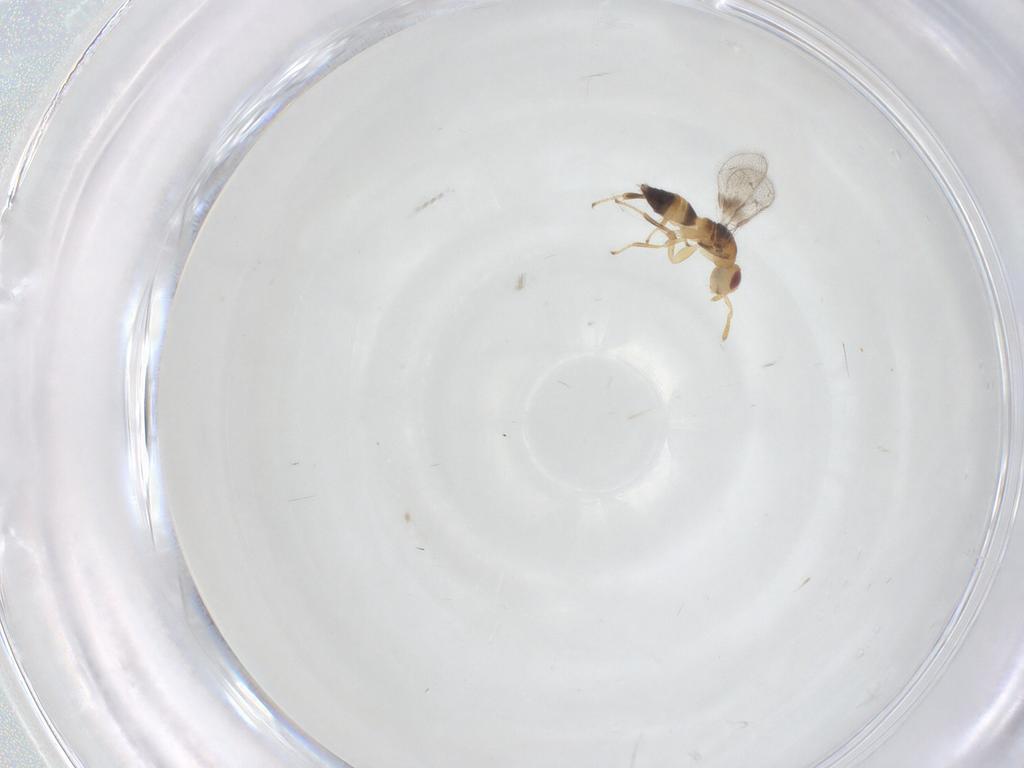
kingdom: Animalia
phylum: Arthropoda
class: Insecta
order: Hymenoptera
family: Torymidae
